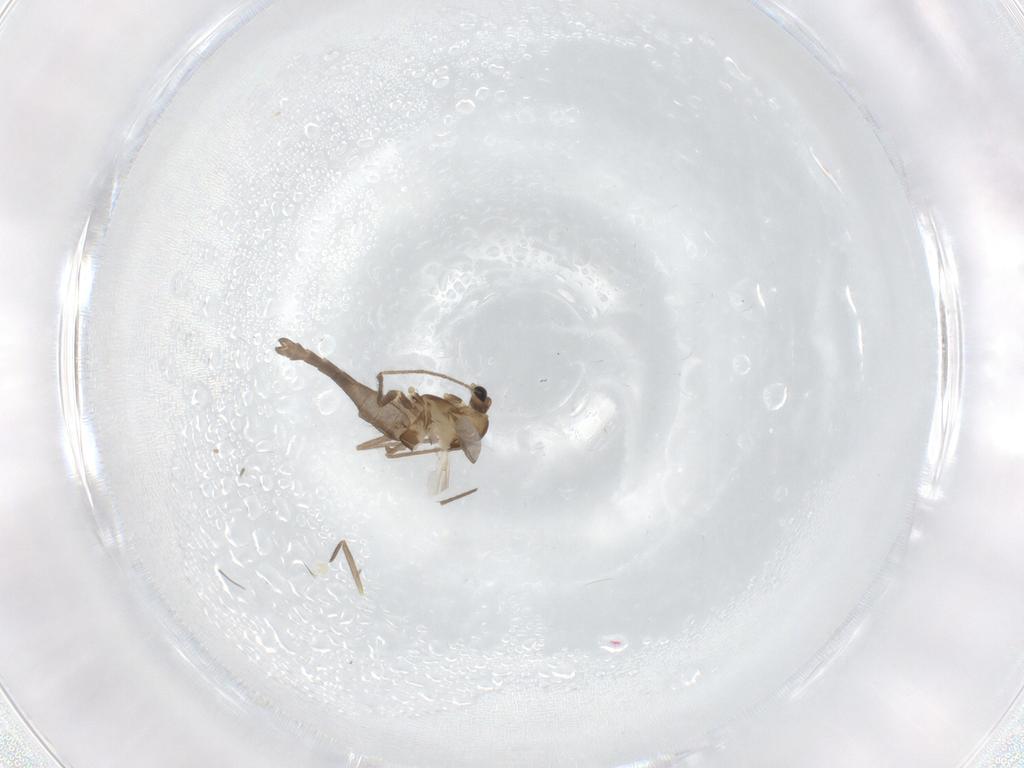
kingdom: Animalia
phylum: Arthropoda
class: Insecta
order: Diptera
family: Chironomidae
